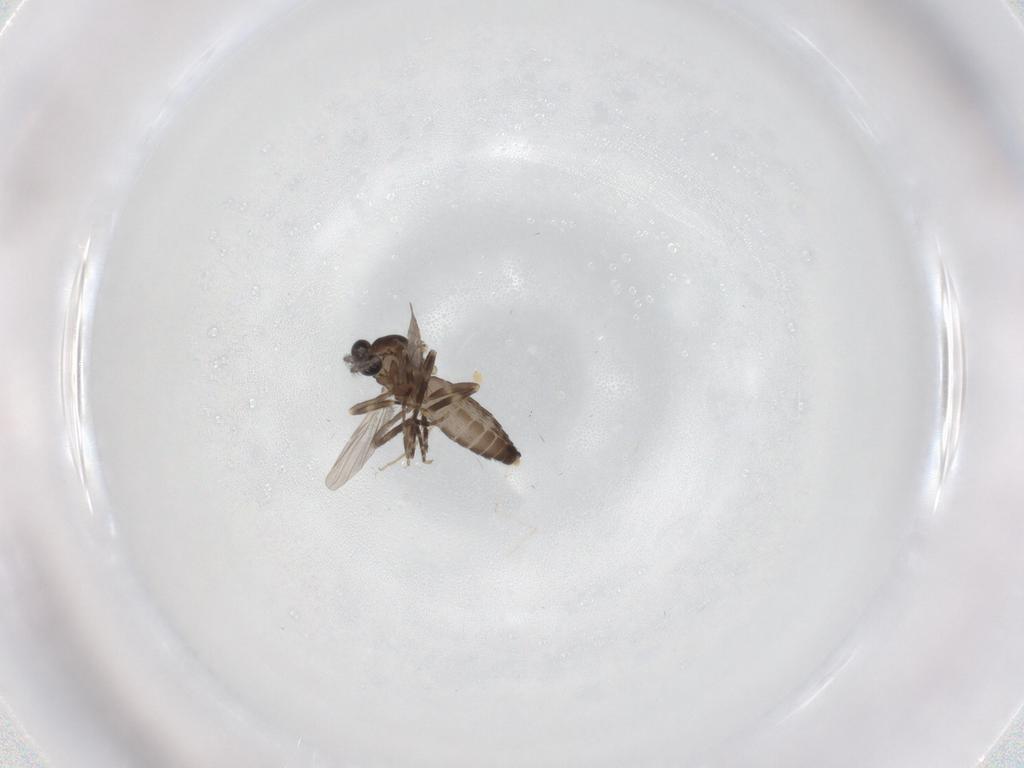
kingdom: Animalia
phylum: Arthropoda
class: Insecta
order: Diptera
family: Ceratopogonidae
